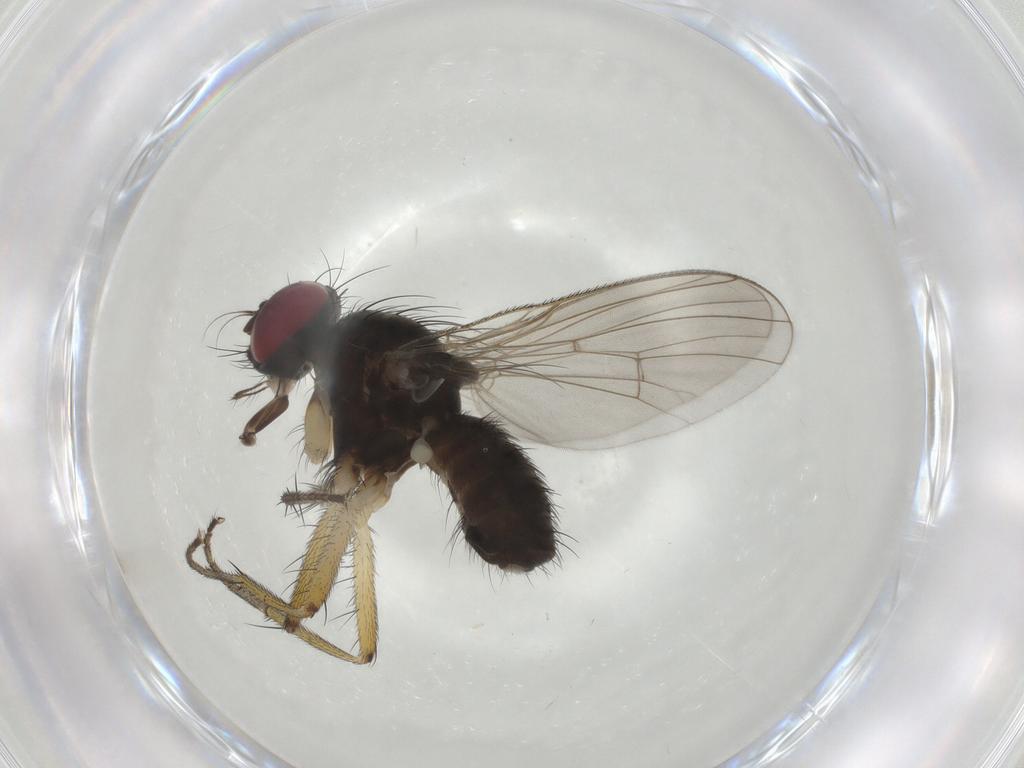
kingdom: Animalia
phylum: Arthropoda
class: Insecta
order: Diptera
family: Muscidae
